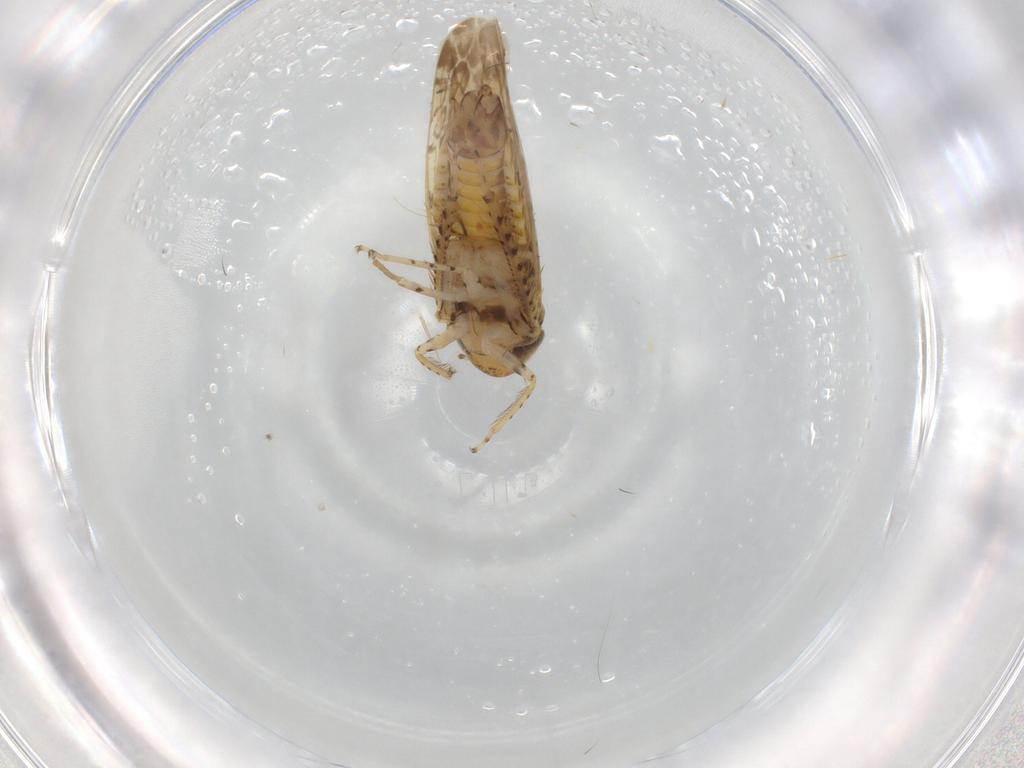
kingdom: Animalia
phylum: Arthropoda
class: Insecta
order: Hemiptera
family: Cicadellidae
